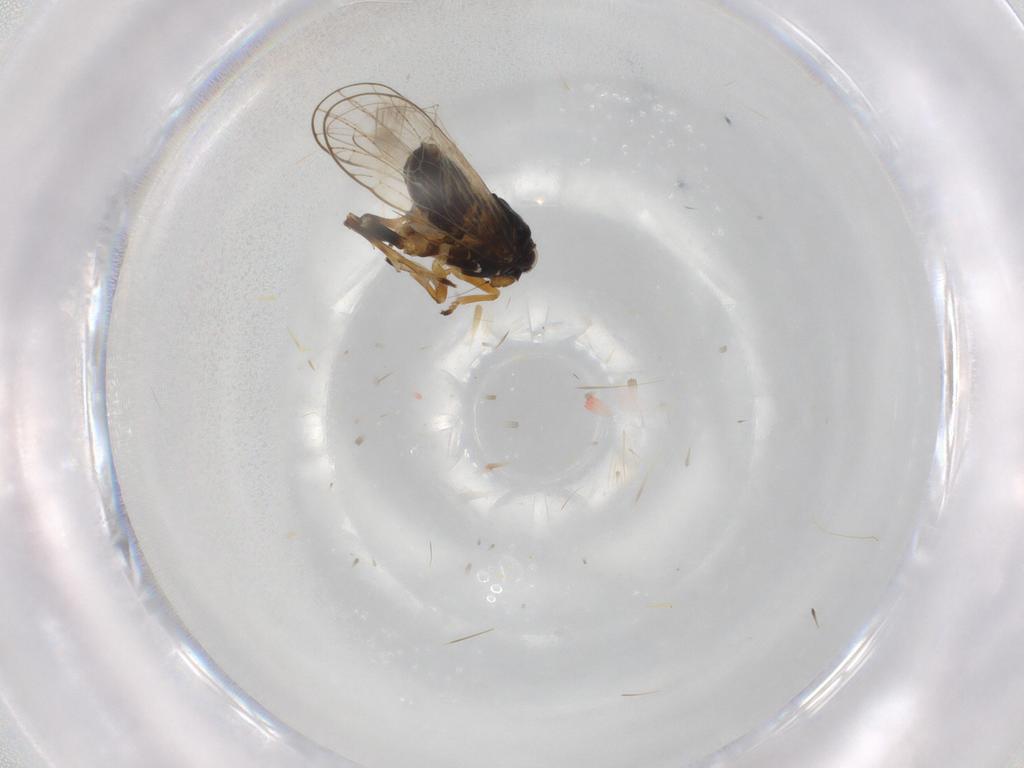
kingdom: Animalia
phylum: Arthropoda
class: Insecta
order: Hemiptera
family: Delphacidae
